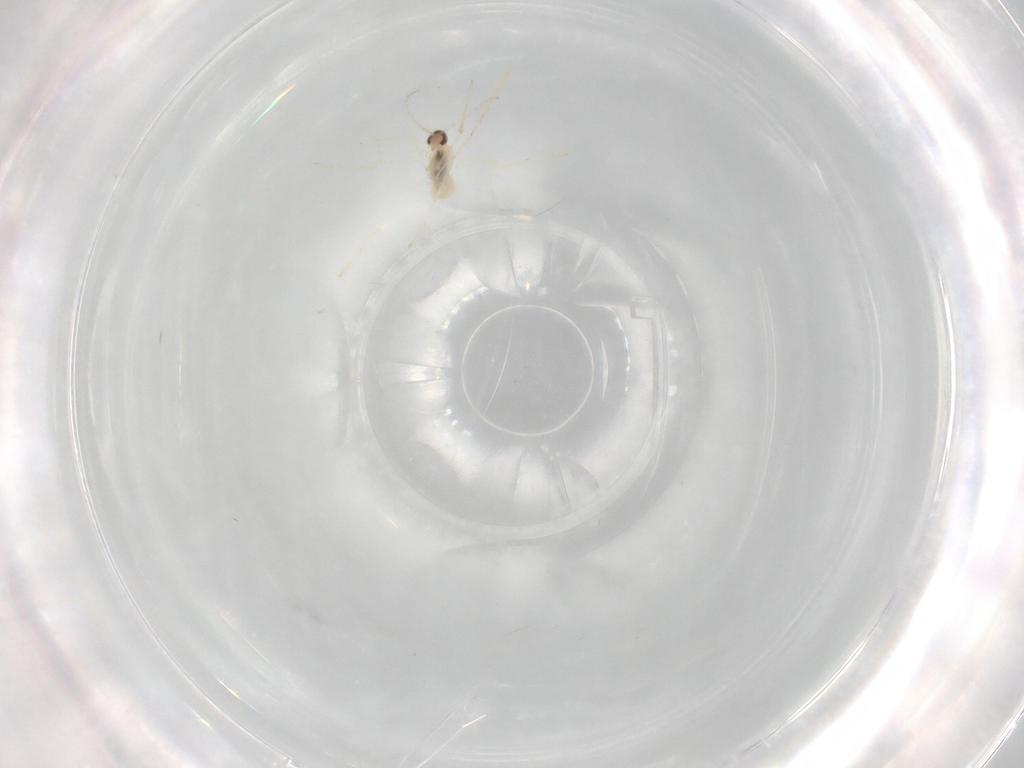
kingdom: Animalia
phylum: Arthropoda
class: Insecta
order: Diptera
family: Cecidomyiidae
